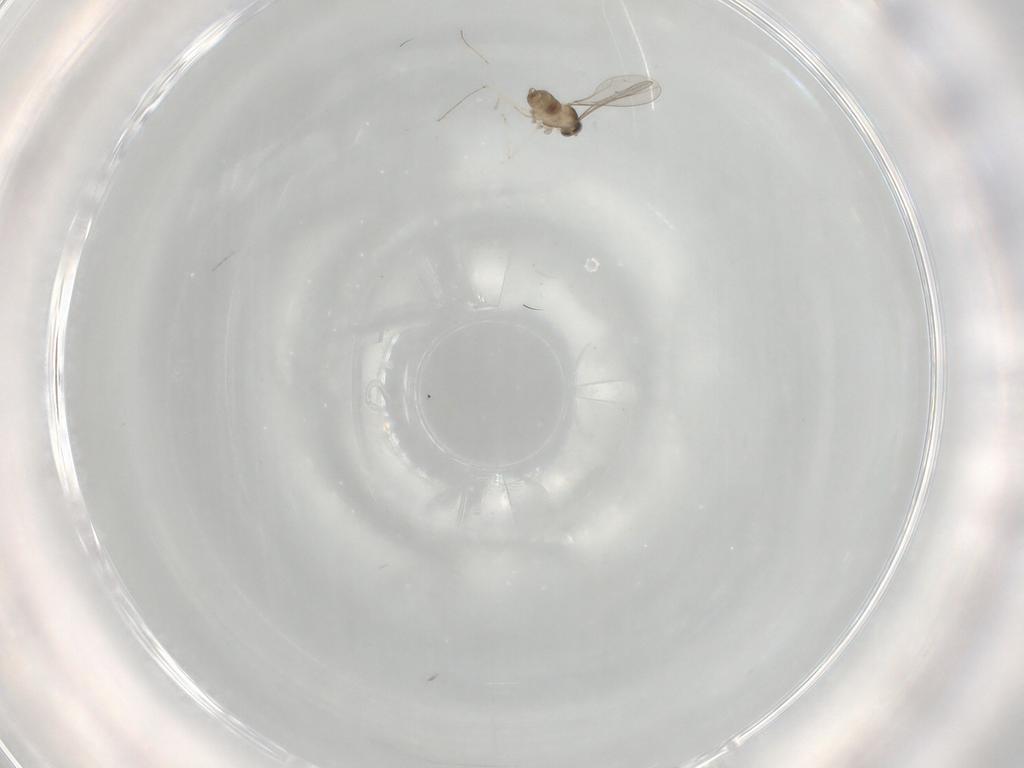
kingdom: Animalia
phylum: Arthropoda
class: Insecta
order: Diptera
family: Cecidomyiidae
